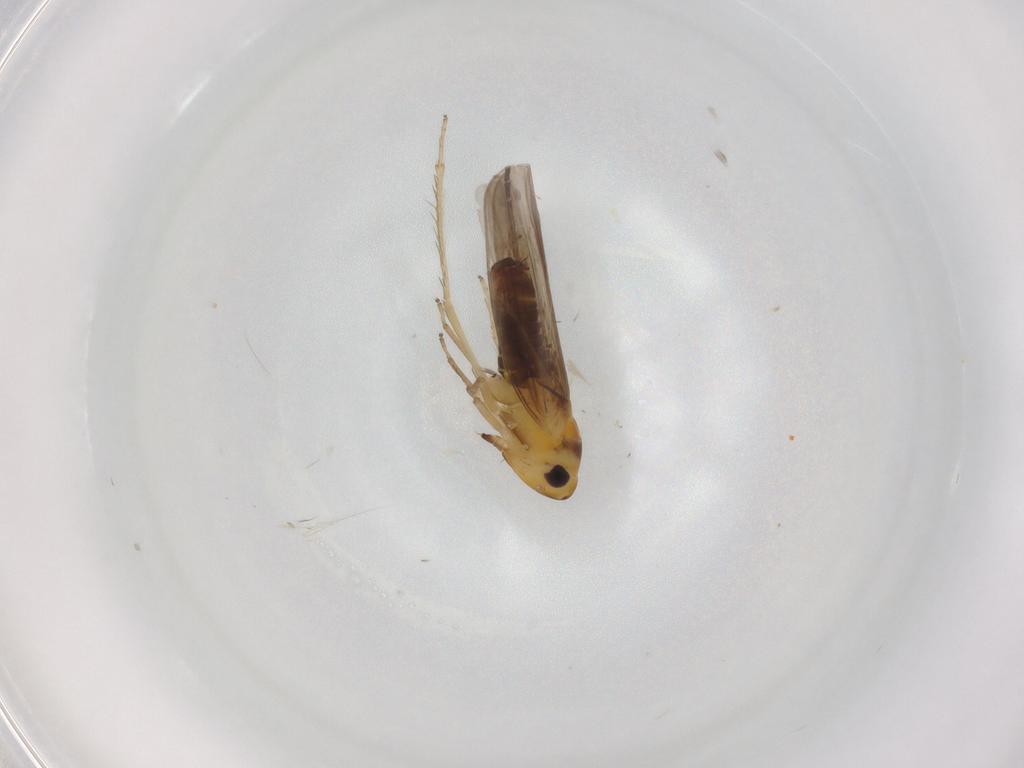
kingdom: Animalia
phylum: Arthropoda
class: Insecta
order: Hemiptera
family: Cicadellidae
